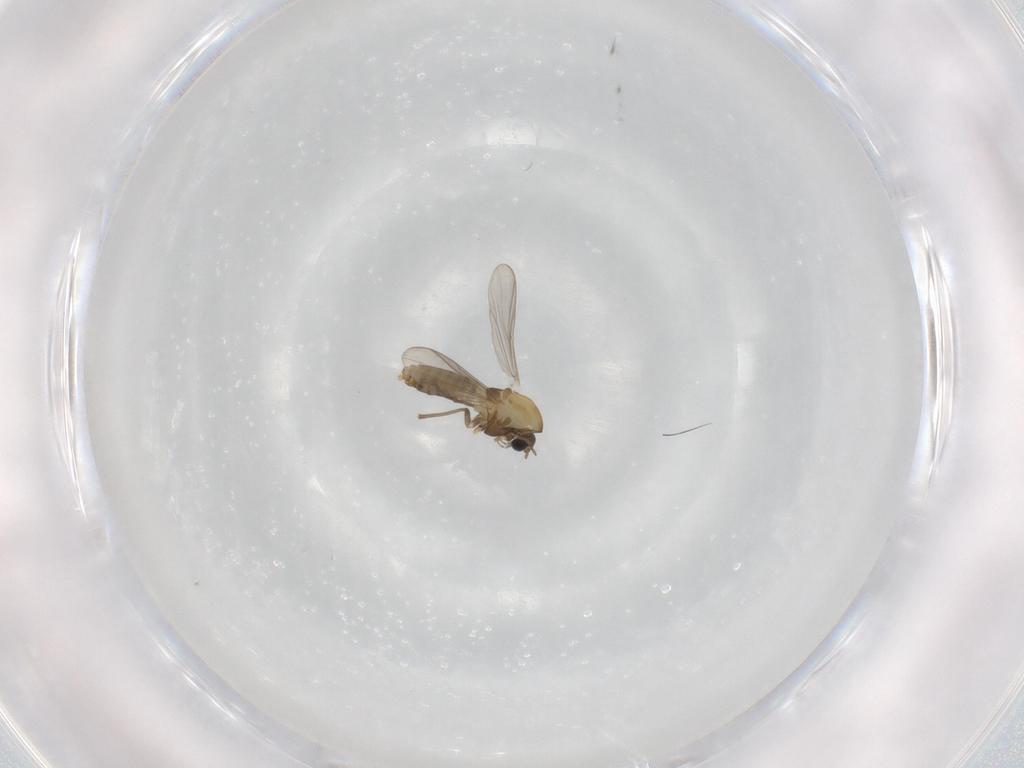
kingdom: Animalia
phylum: Arthropoda
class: Insecta
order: Diptera
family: Chironomidae
